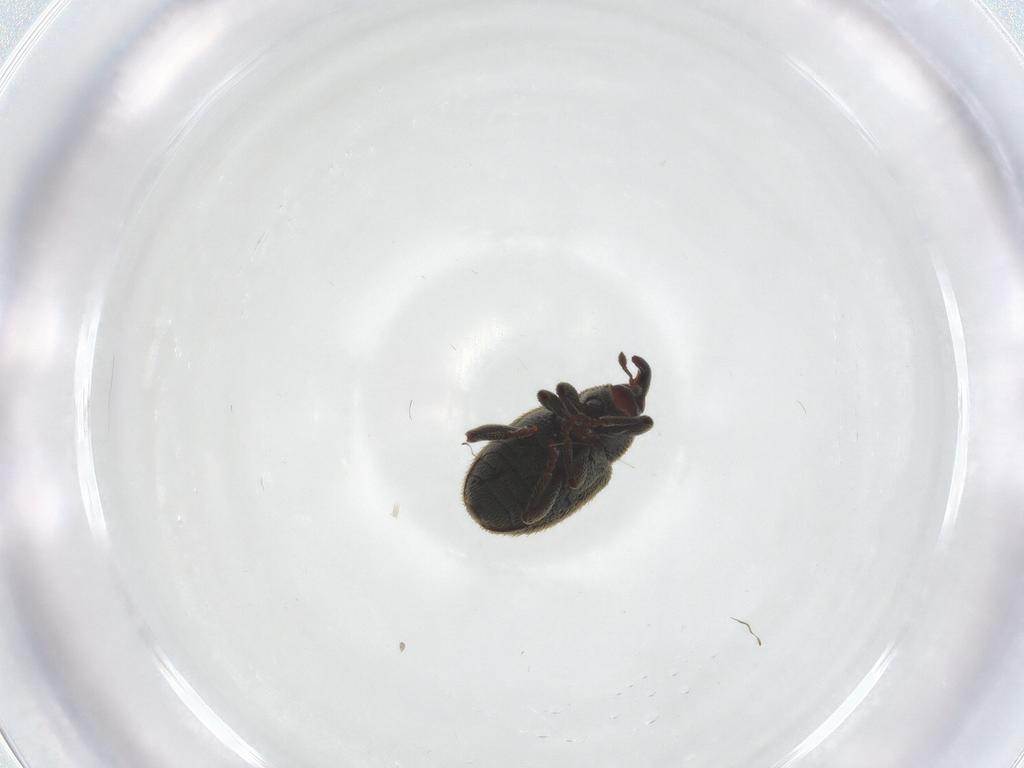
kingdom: Animalia
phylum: Arthropoda
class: Insecta
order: Coleoptera
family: Curculionidae
